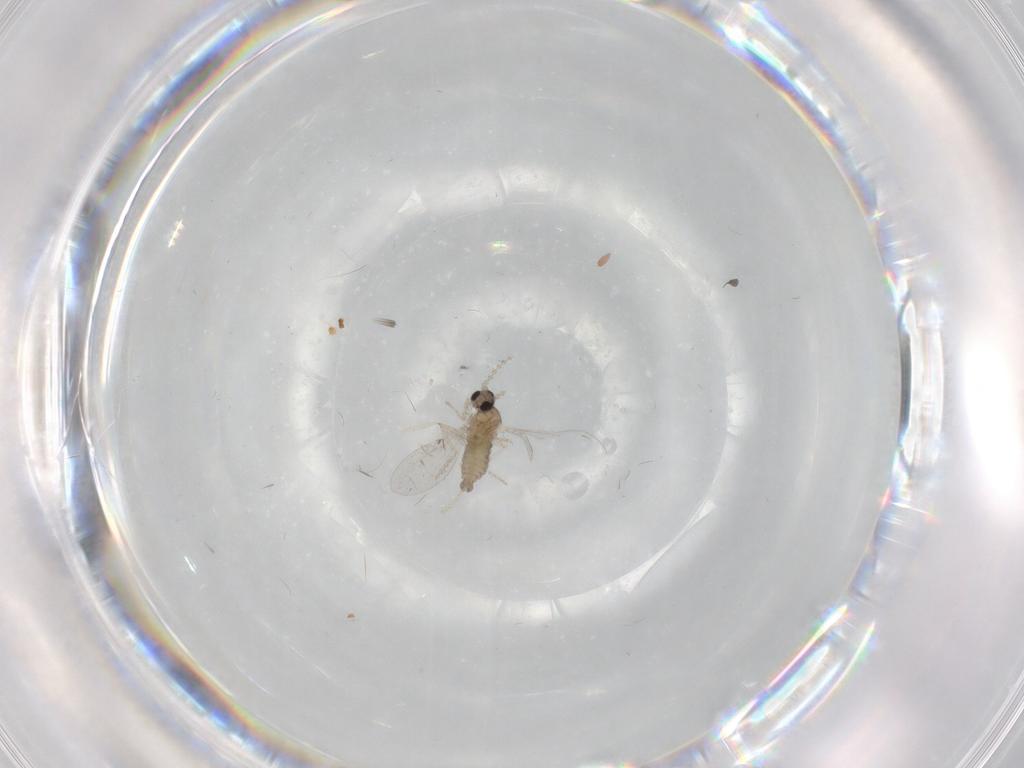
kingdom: Animalia
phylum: Arthropoda
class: Insecta
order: Diptera
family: Cecidomyiidae
